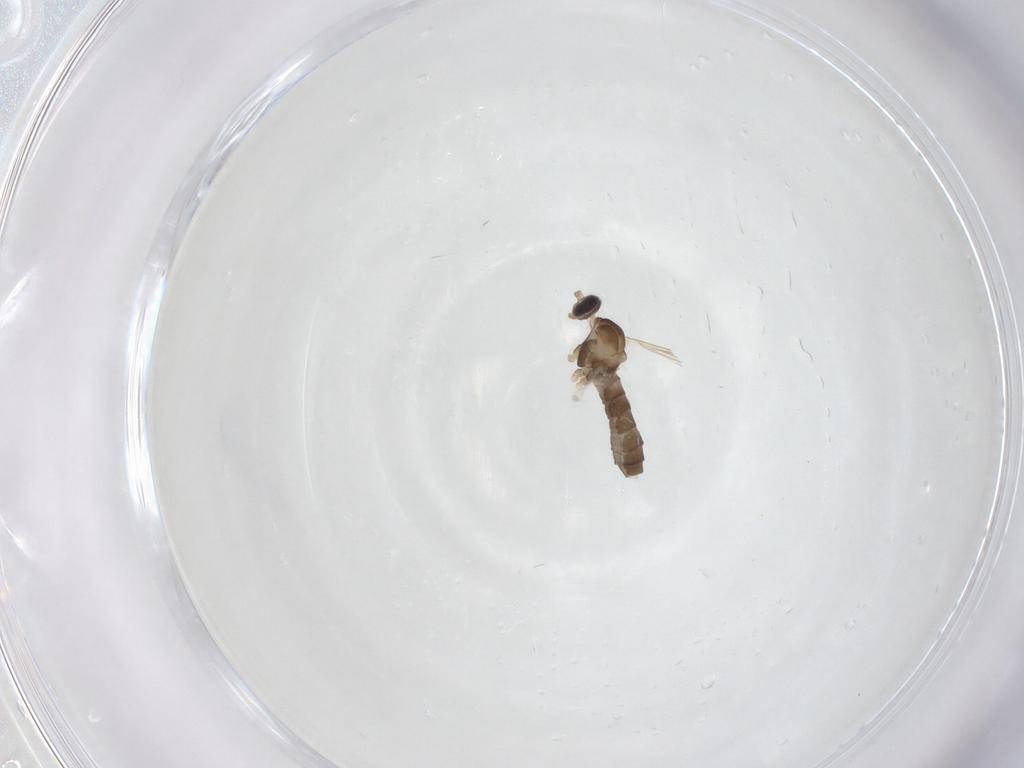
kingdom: Animalia
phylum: Arthropoda
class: Insecta
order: Diptera
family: Cecidomyiidae
